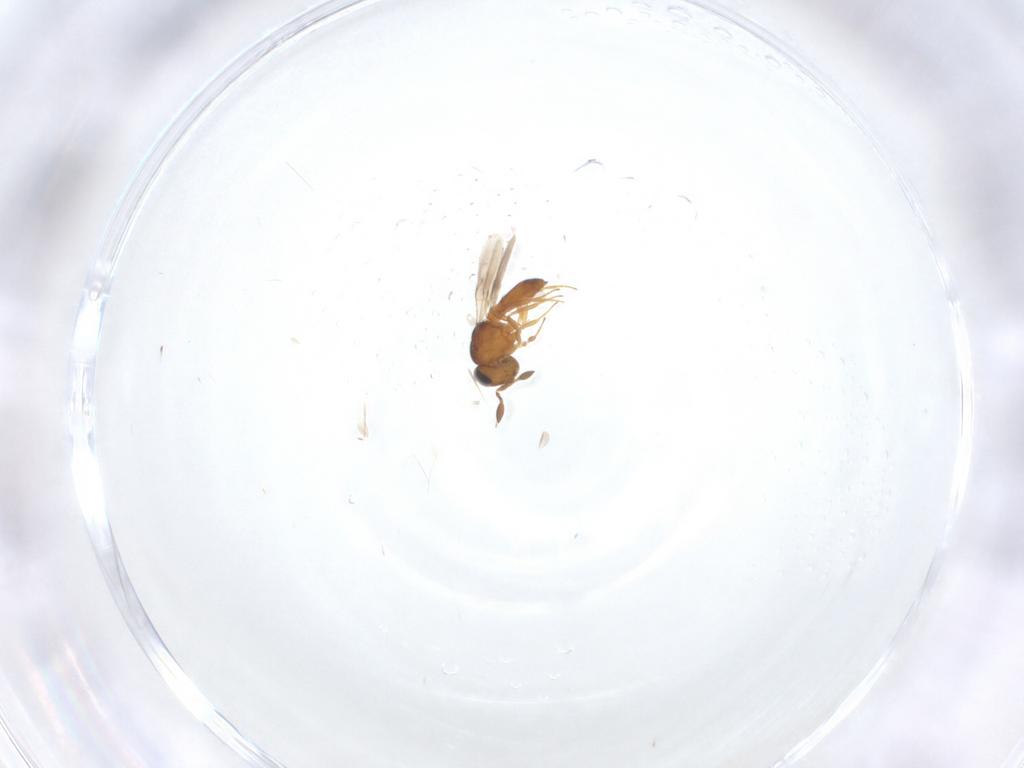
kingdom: Animalia
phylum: Arthropoda
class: Insecta
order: Hymenoptera
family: Scelionidae
